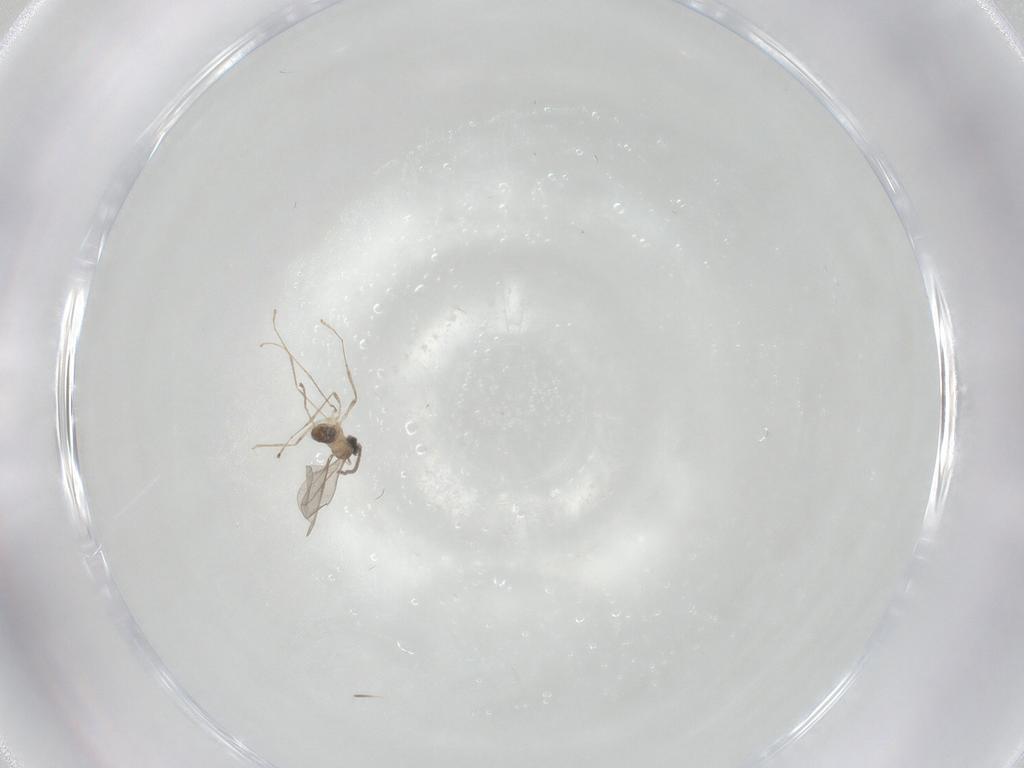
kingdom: Animalia
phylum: Arthropoda
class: Insecta
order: Diptera
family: Cecidomyiidae
